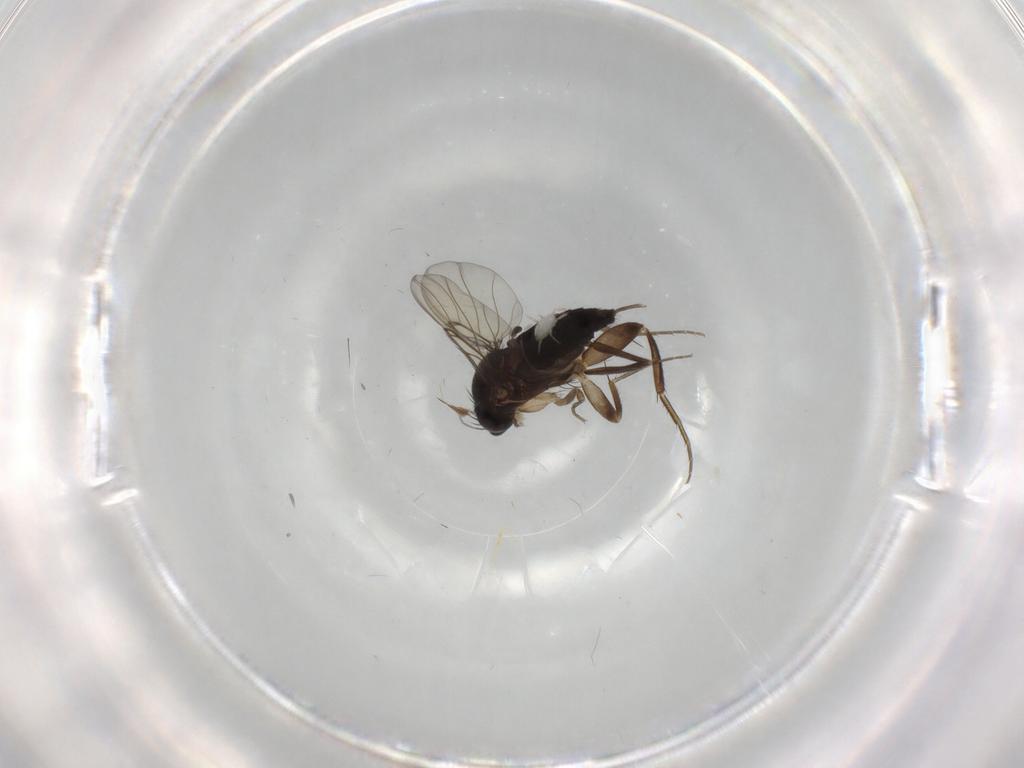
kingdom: Animalia
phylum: Arthropoda
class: Insecta
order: Diptera
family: Phoridae
